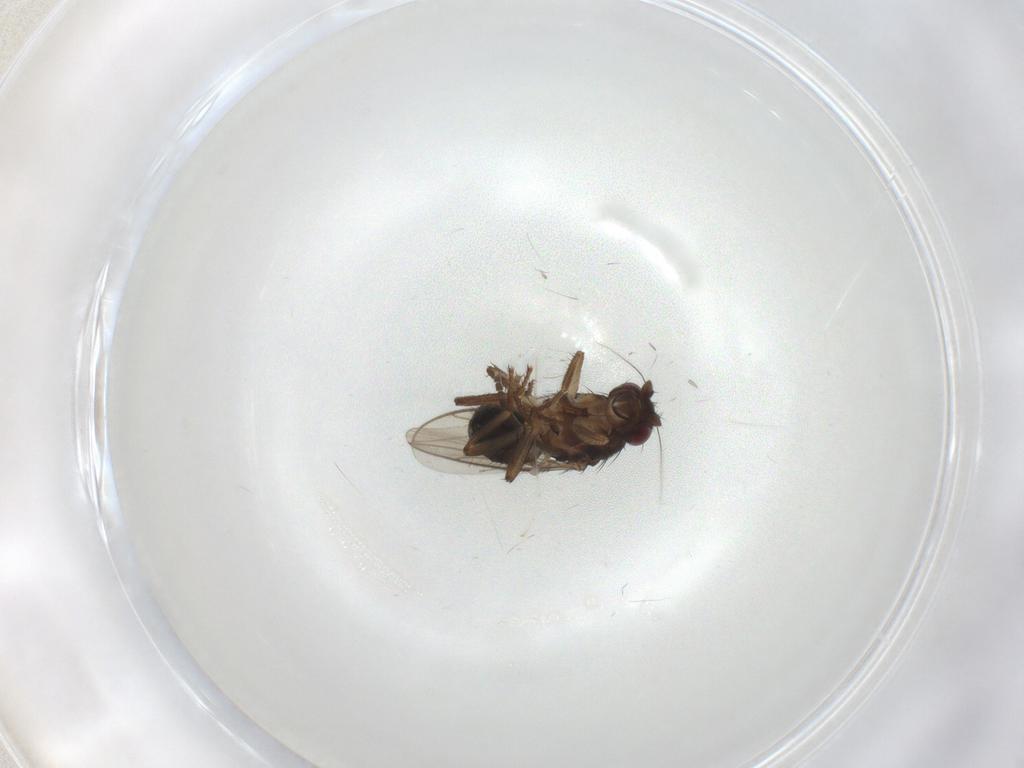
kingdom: Animalia
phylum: Arthropoda
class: Insecta
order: Diptera
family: Sphaeroceridae
